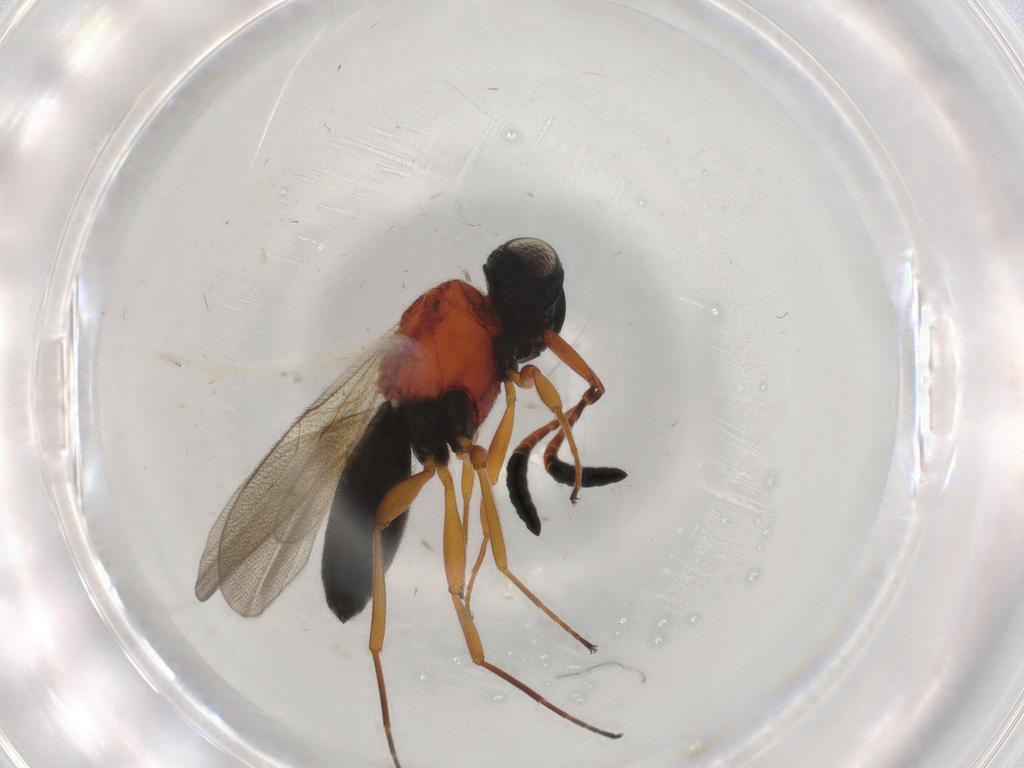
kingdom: Animalia
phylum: Arthropoda
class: Insecta
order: Hymenoptera
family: Scelionidae
